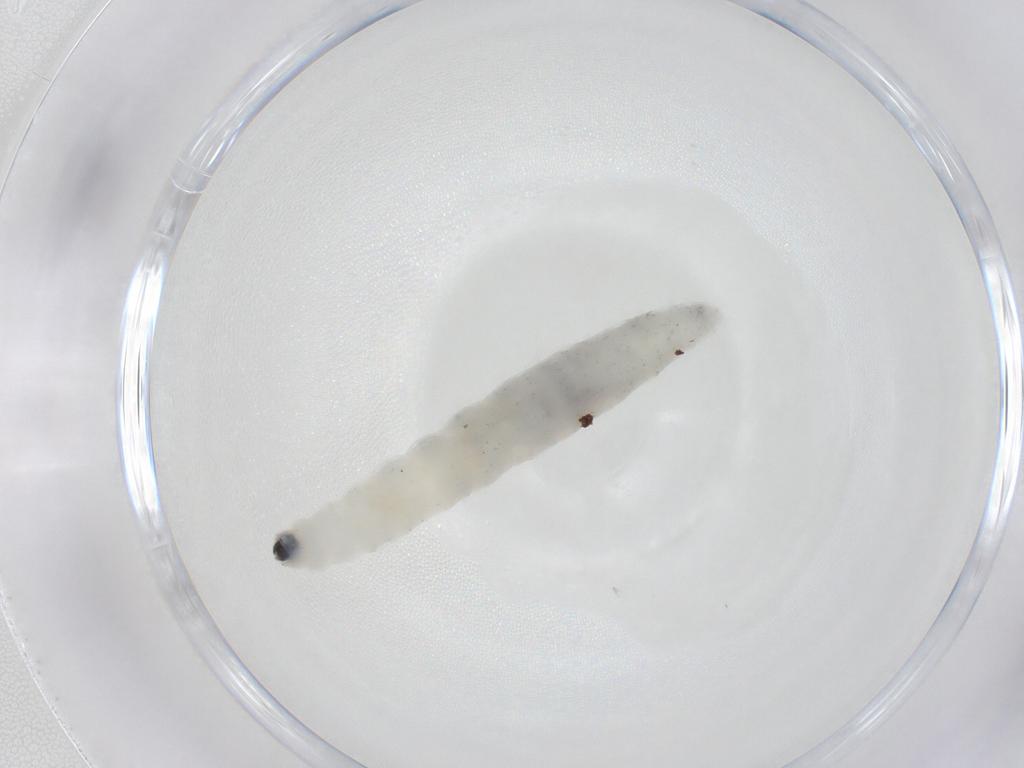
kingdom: Animalia
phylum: Arthropoda
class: Insecta
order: Diptera
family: Sciaridae
